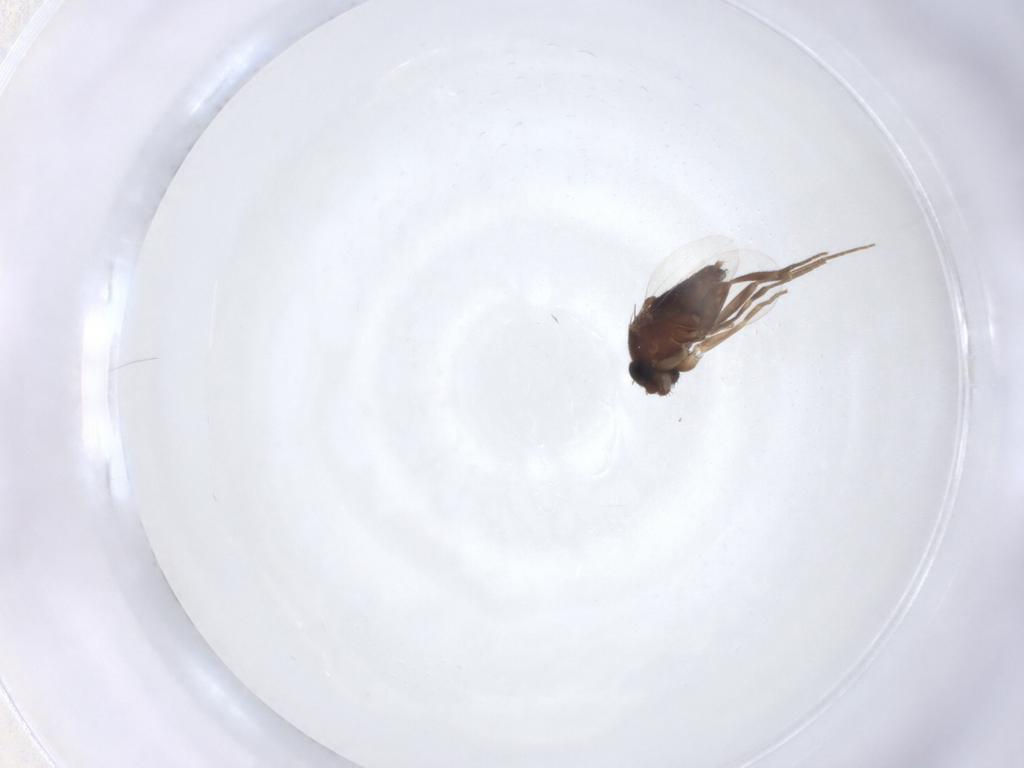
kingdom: Animalia
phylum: Arthropoda
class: Insecta
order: Diptera
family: Phoridae
